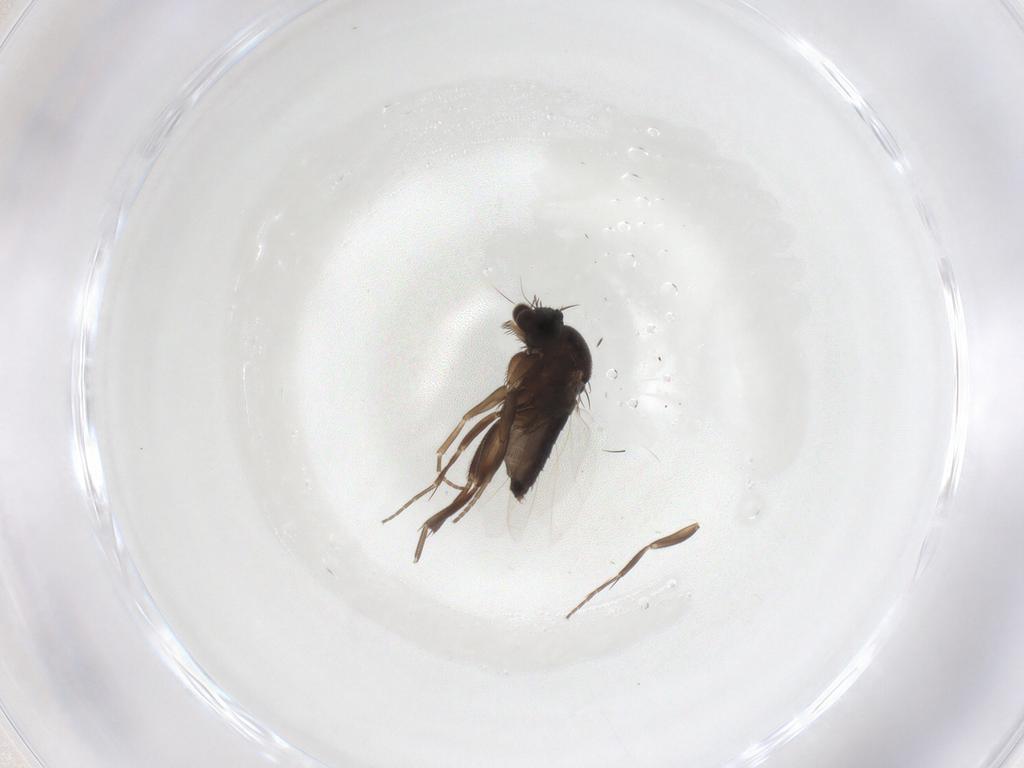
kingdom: Animalia
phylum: Arthropoda
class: Insecta
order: Diptera
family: Phoridae
